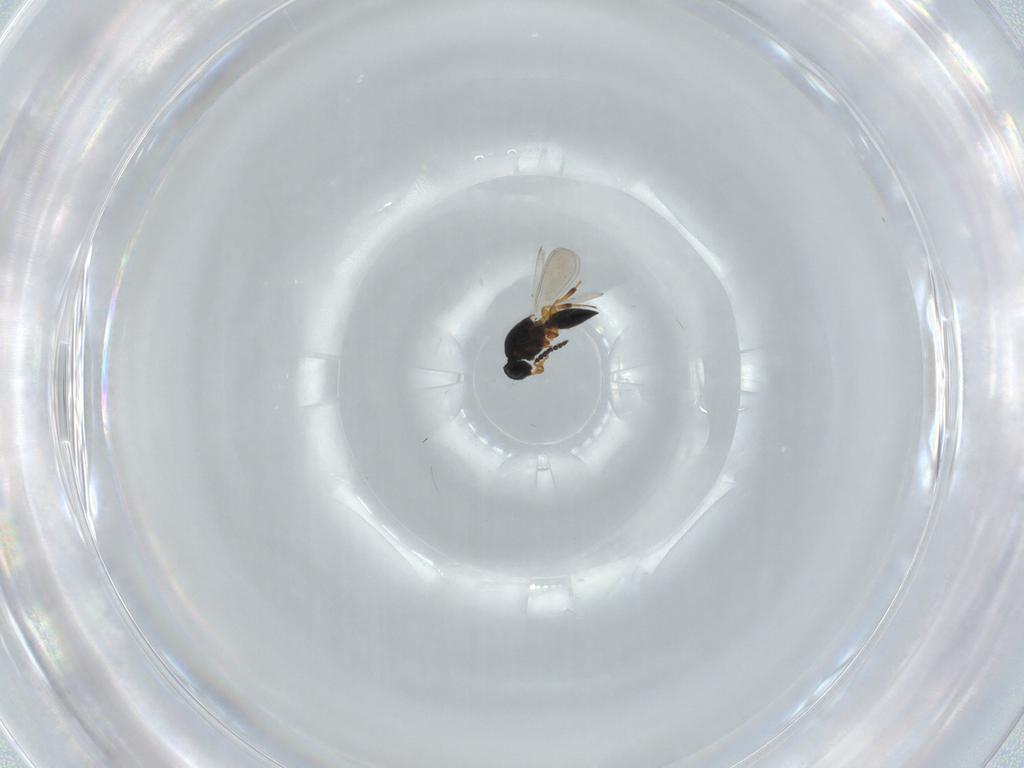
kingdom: Animalia
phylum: Arthropoda
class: Insecta
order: Hymenoptera
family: Platygastridae
